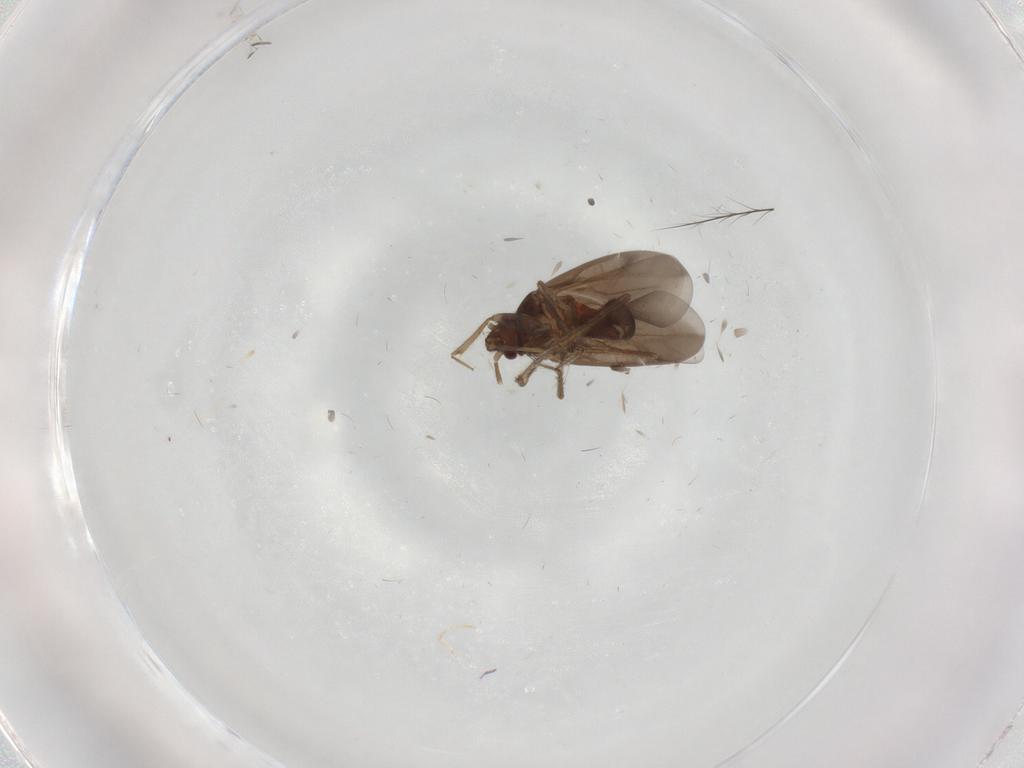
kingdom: Animalia
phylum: Arthropoda
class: Insecta
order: Hemiptera
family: Ceratocombidae
